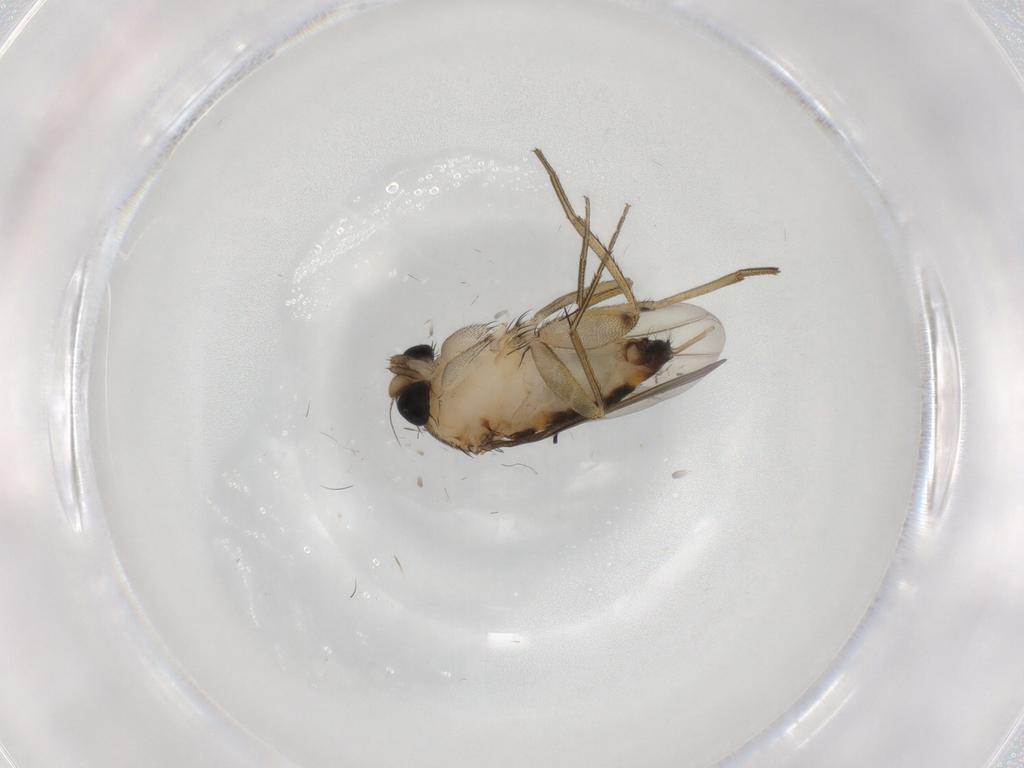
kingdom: Animalia
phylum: Arthropoda
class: Insecta
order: Diptera
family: Phoridae
